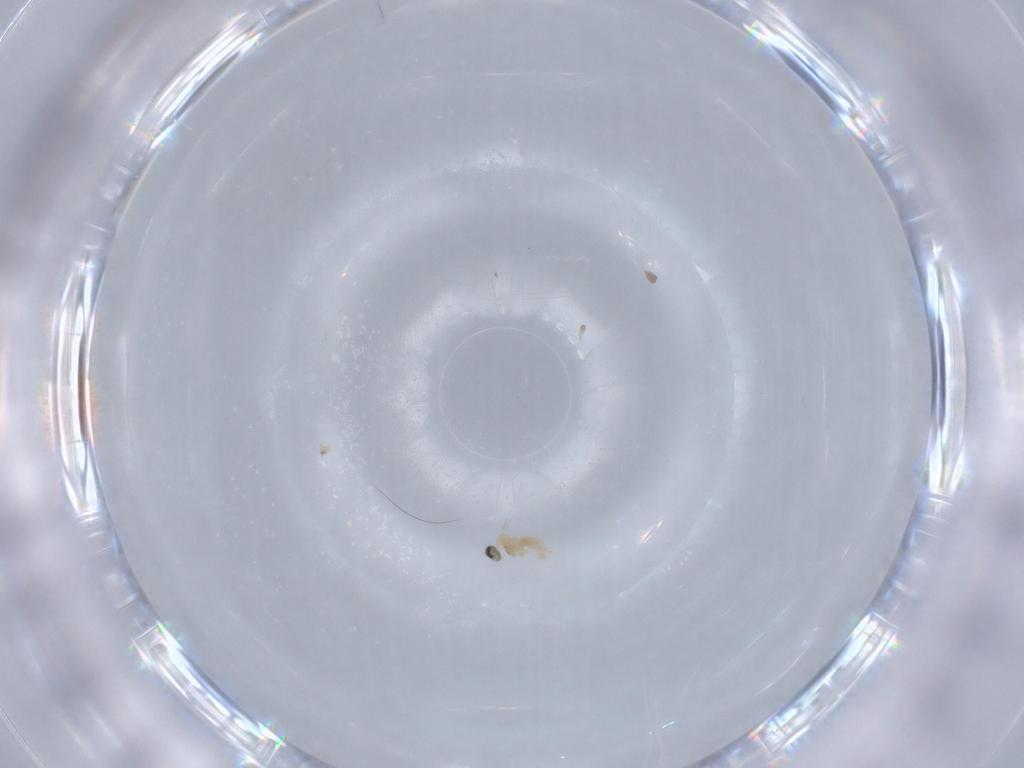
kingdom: Animalia
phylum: Arthropoda
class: Insecta
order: Diptera
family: Cecidomyiidae
